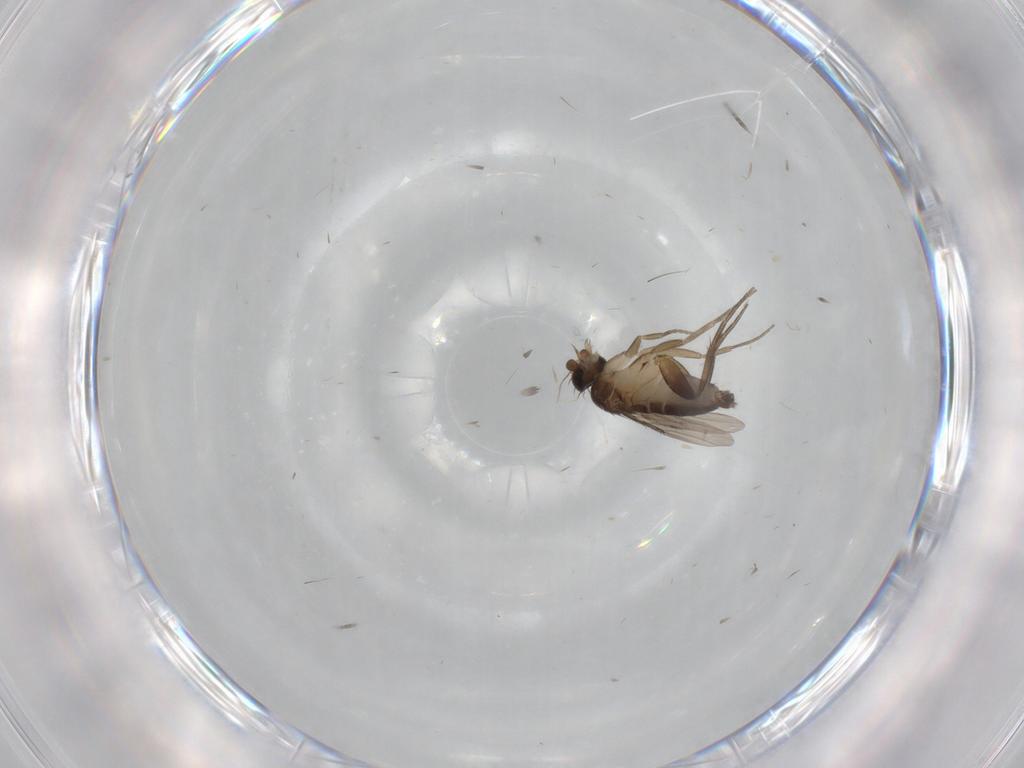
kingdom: Animalia
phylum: Arthropoda
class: Insecta
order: Diptera
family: Phoridae
